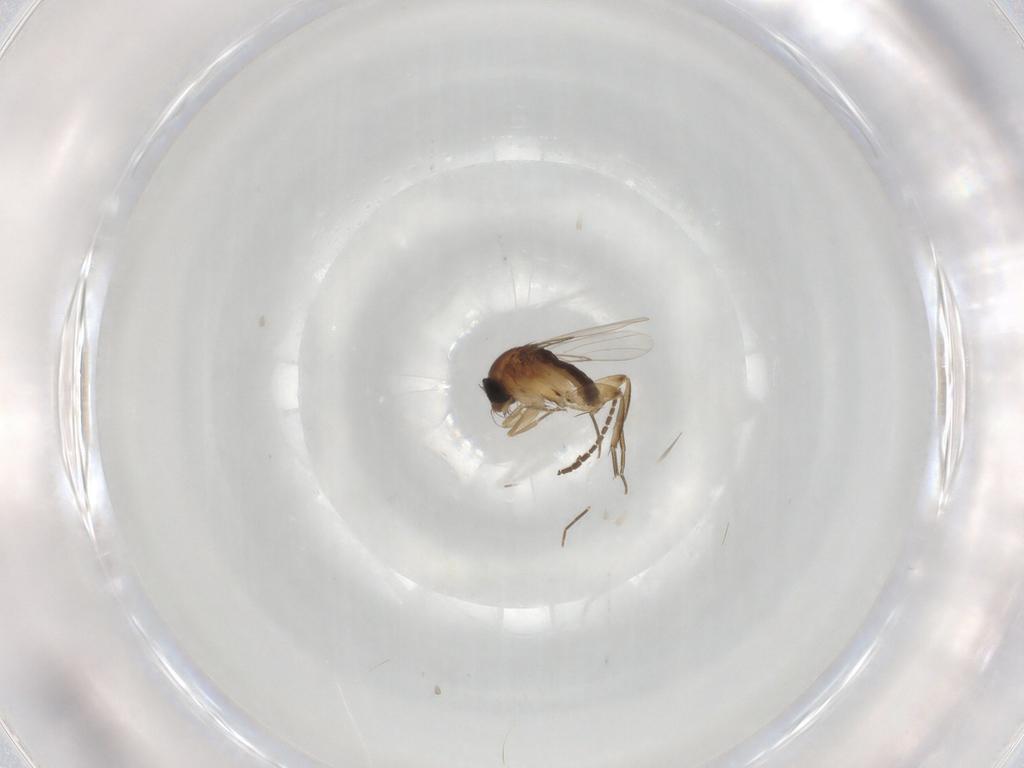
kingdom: Animalia
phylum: Arthropoda
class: Insecta
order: Diptera
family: Phoridae
